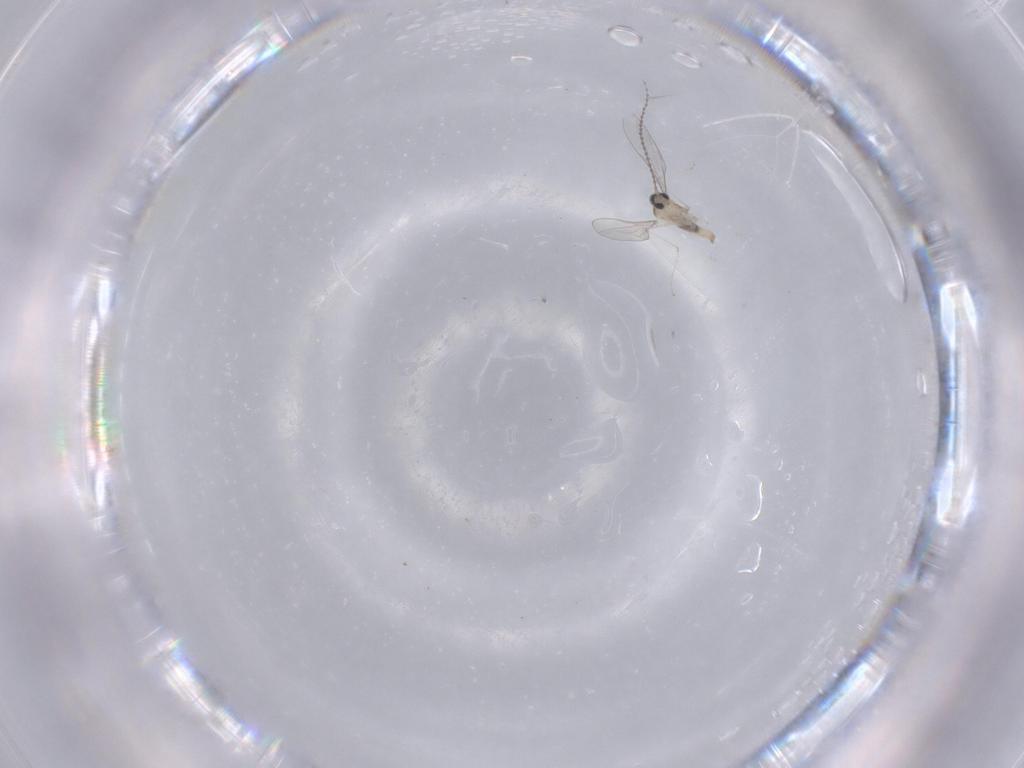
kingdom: Animalia
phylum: Arthropoda
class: Insecta
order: Diptera
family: Cecidomyiidae
